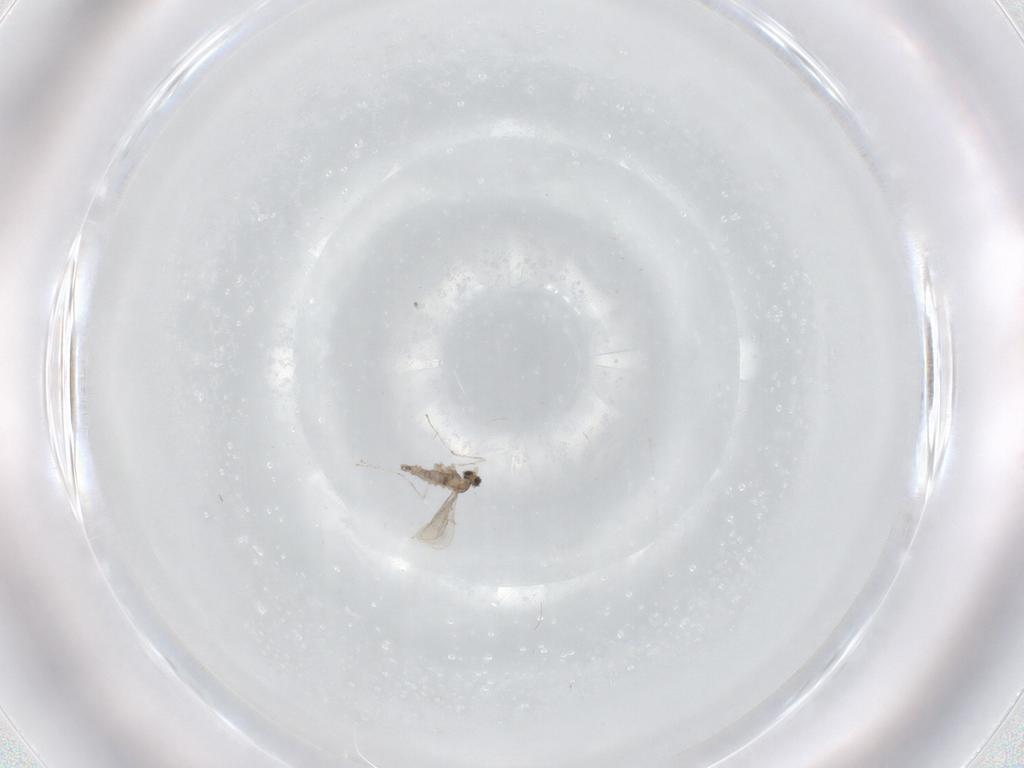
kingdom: Animalia
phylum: Arthropoda
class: Insecta
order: Diptera
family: Cecidomyiidae
